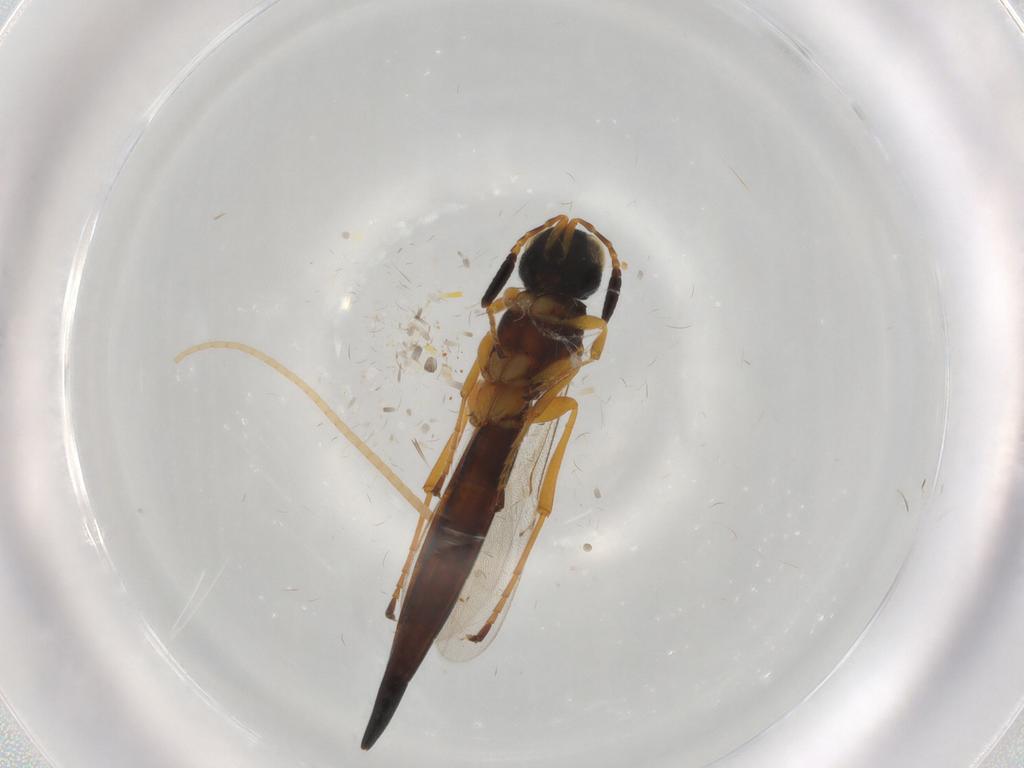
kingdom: Animalia
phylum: Arthropoda
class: Insecta
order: Hymenoptera
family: Scelionidae
